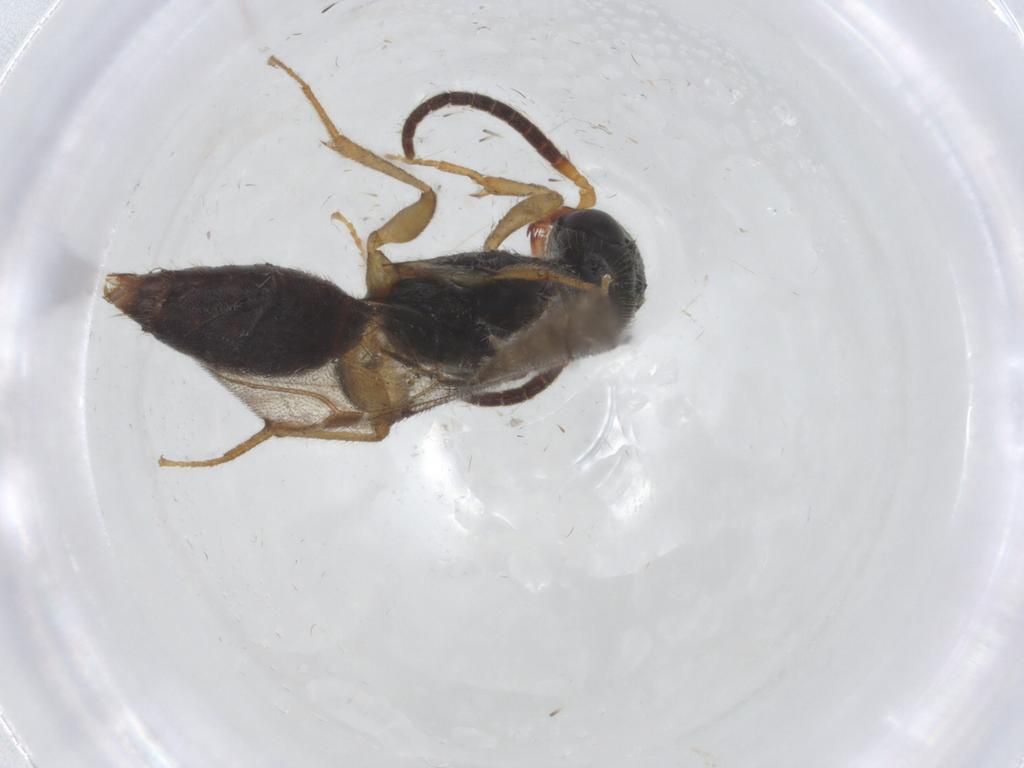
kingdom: Animalia
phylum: Arthropoda
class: Insecta
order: Hymenoptera
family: Bethylidae
